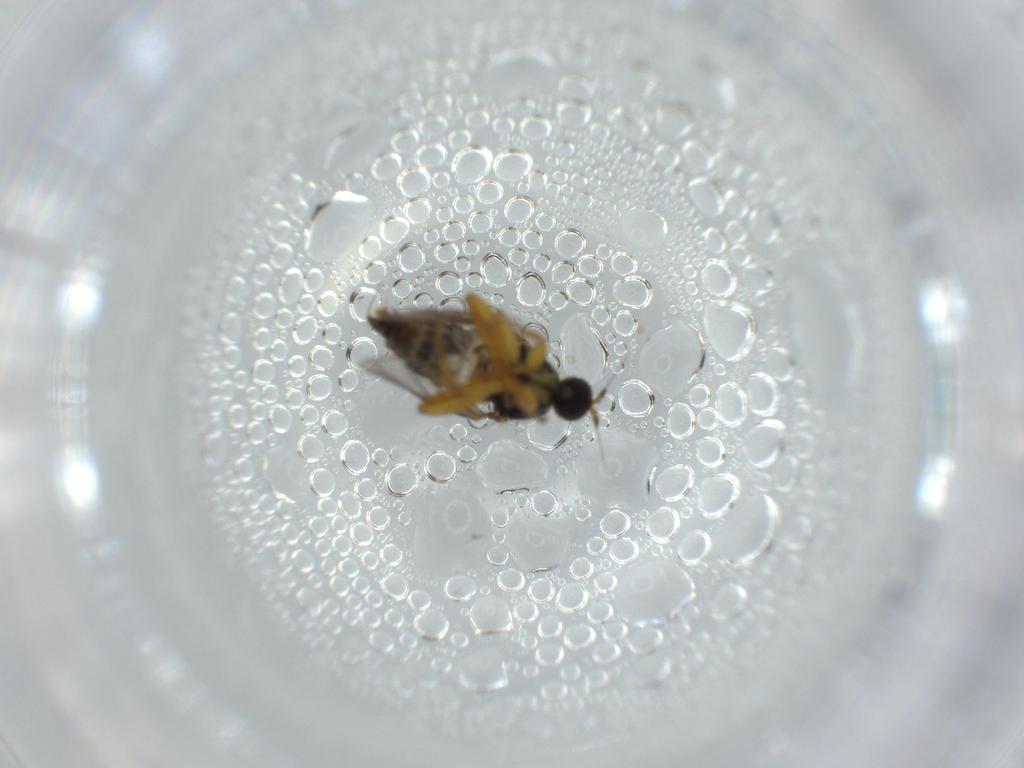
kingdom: Animalia
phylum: Arthropoda
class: Insecta
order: Diptera
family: Hybotidae
